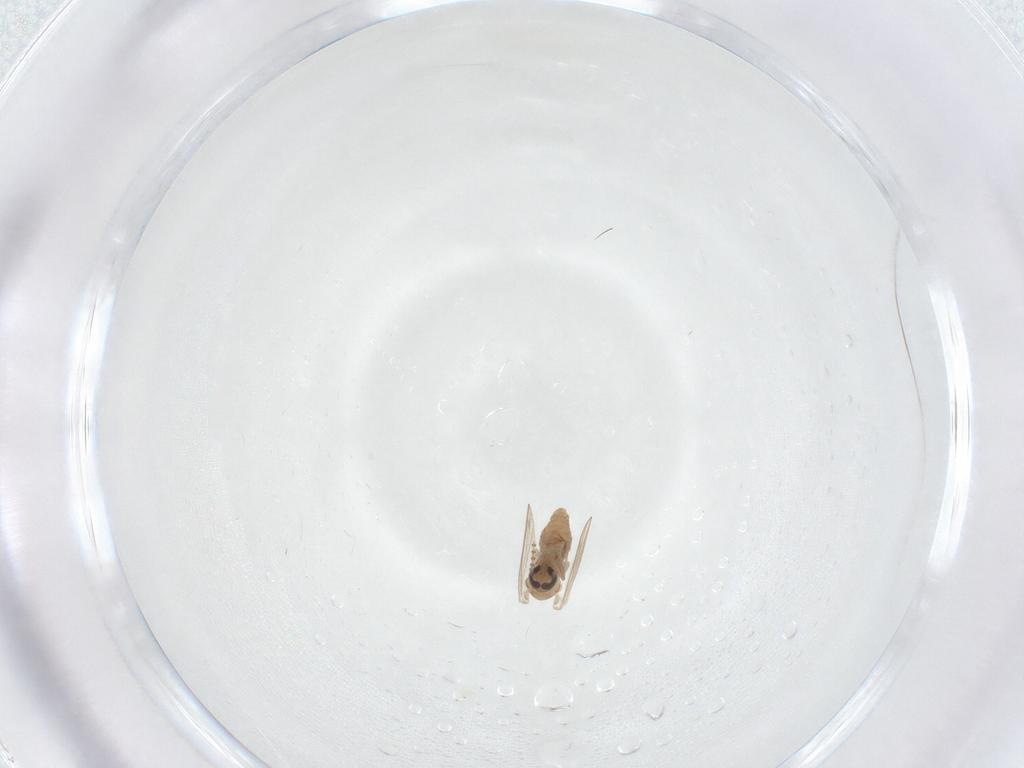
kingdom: Animalia
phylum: Arthropoda
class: Insecta
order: Diptera
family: Psychodidae
